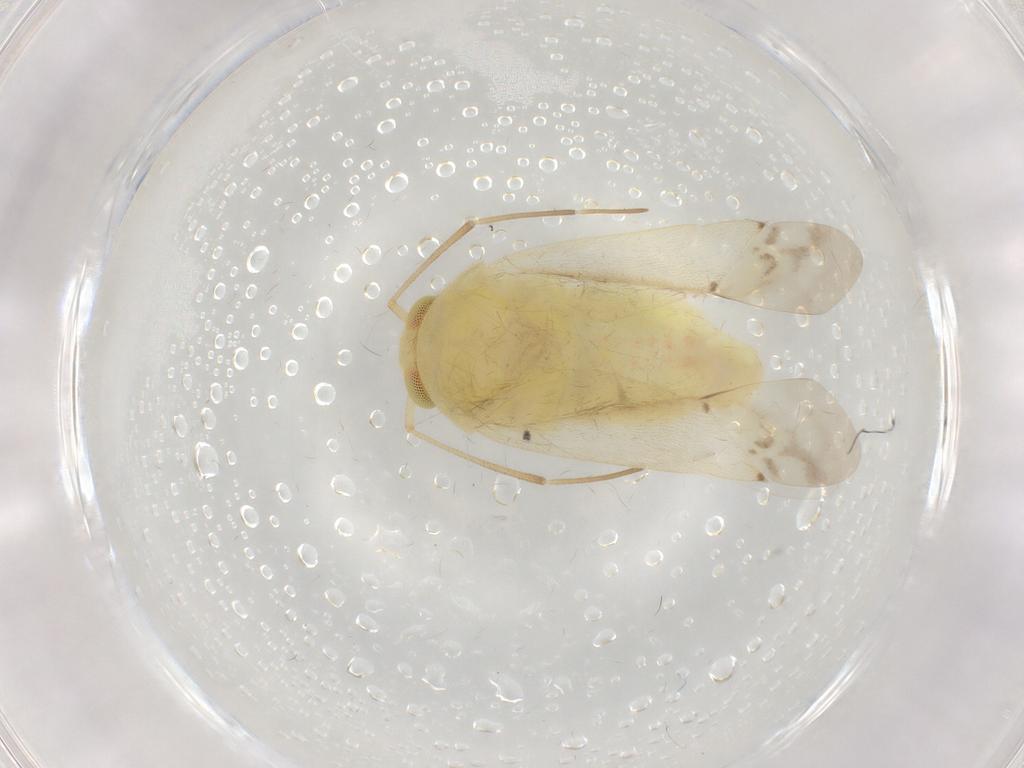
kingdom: Animalia
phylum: Arthropoda
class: Insecta
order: Hemiptera
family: Miridae
